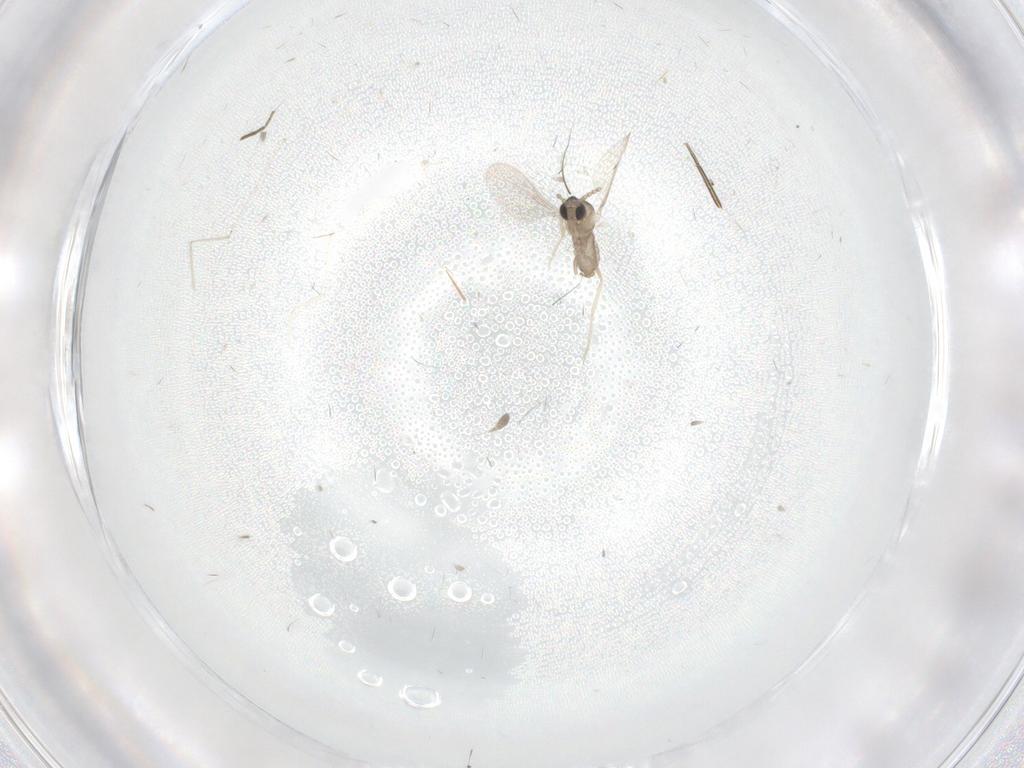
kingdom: Animalia
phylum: Arthropoda
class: Insecta
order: Diptera
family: Ceratopogonidae
